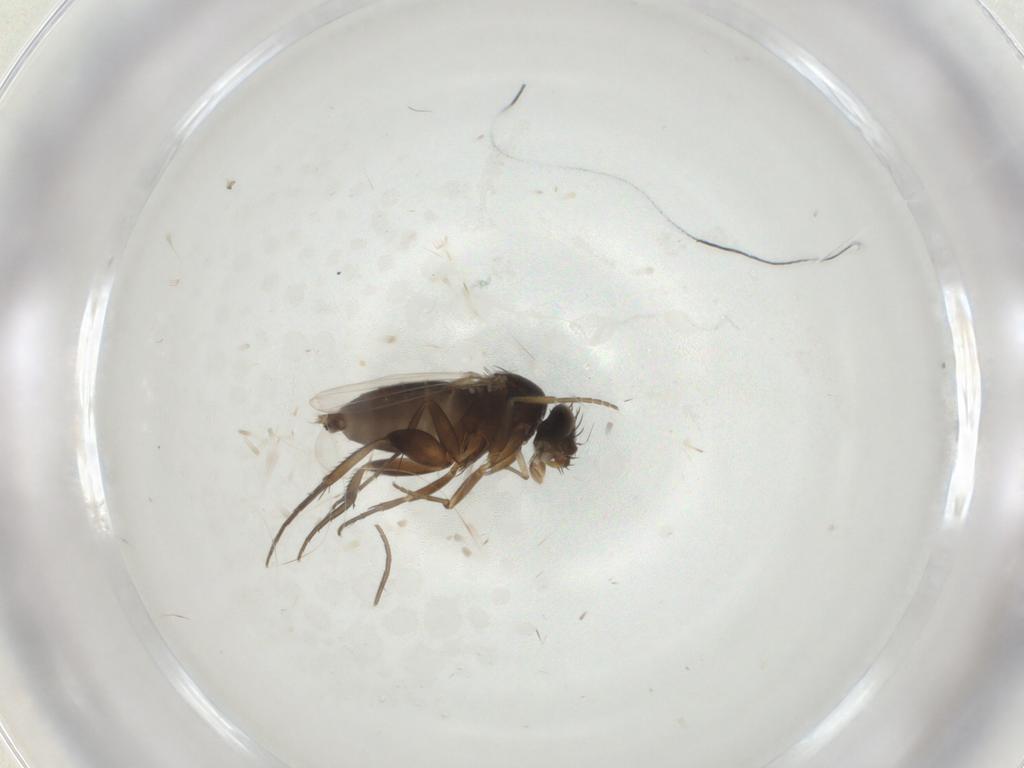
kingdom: Animalia
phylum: Arthropoda
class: Insecta
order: Diptera
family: Phoridae
